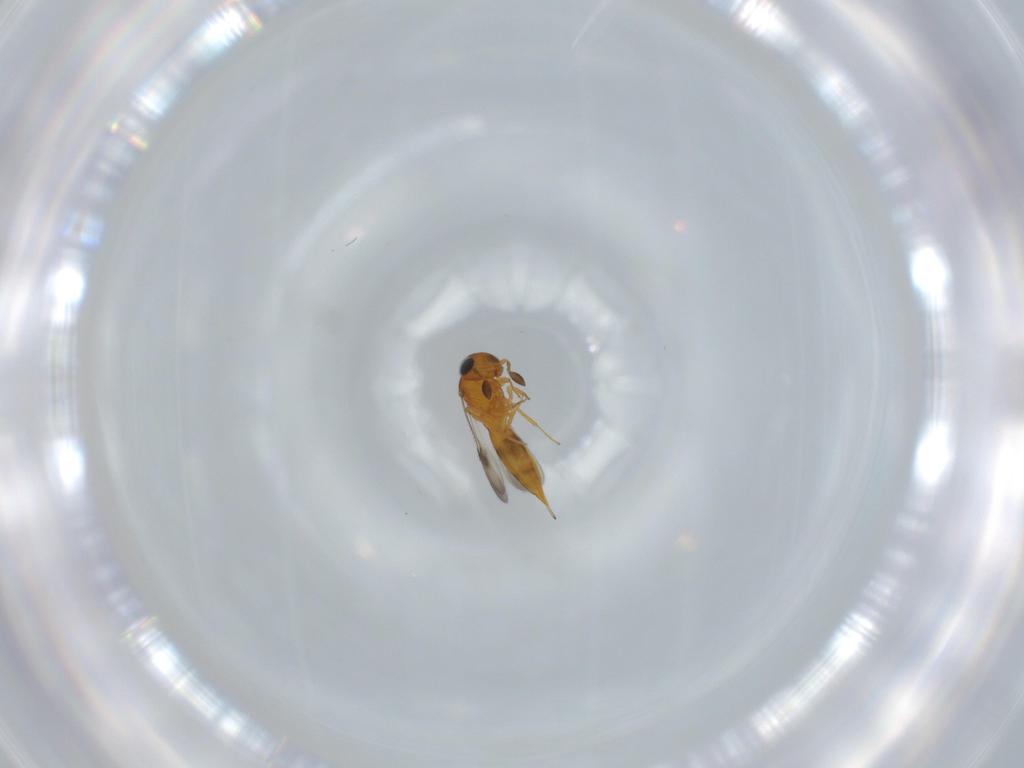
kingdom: Animalia
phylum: Arthropoda
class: Insecta
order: Hymenoptera
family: Scelionidae
